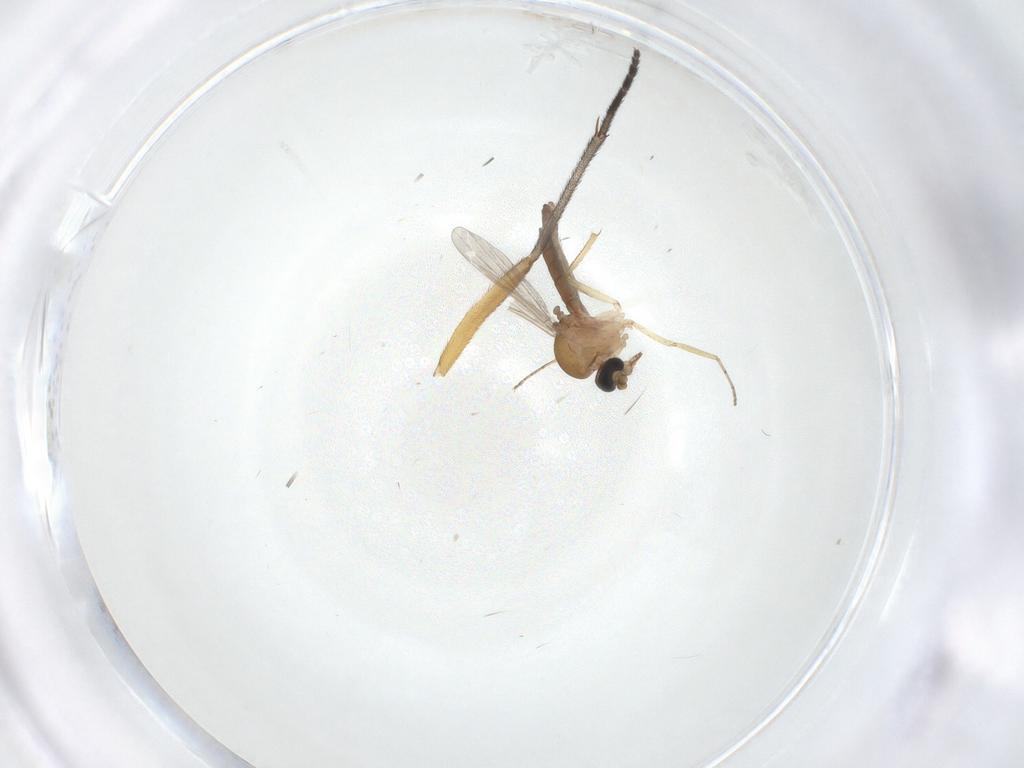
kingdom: Animalia
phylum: Arthropoda
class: Insecta
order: Diptera
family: Ceratopogonidae
